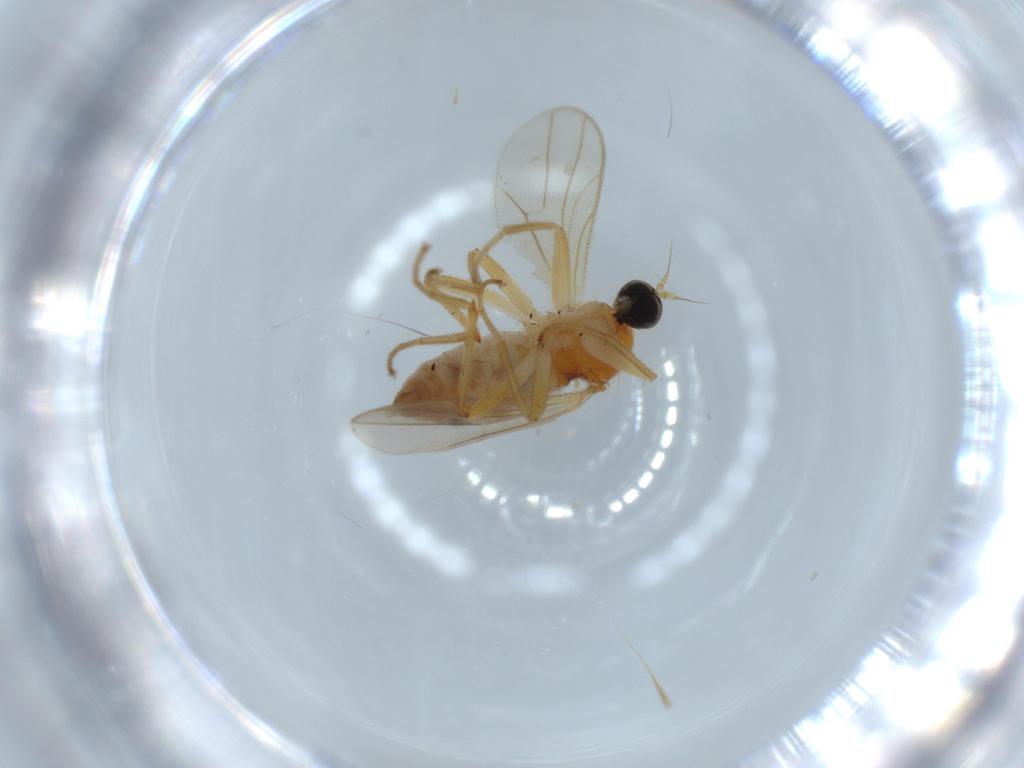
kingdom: Animalia
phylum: Arthropoda
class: Insecta
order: Diptera
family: Hybotidae
